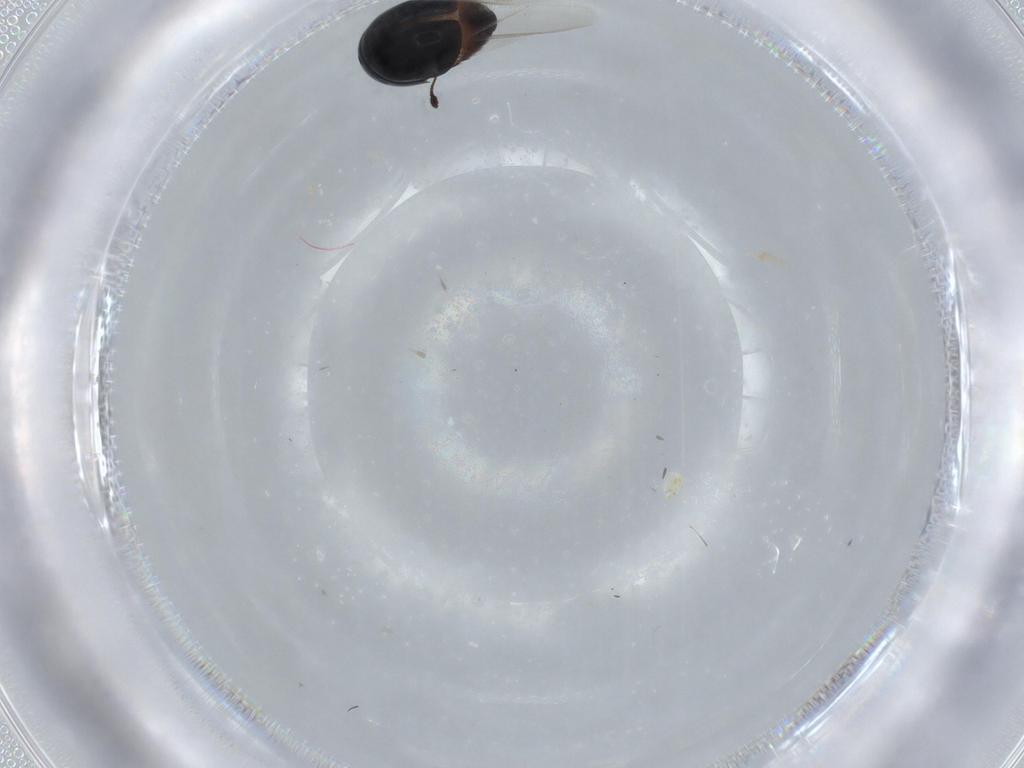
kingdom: Animalia
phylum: Arthropoda
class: Insecta
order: Coleoptera
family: Cybocephalidae
